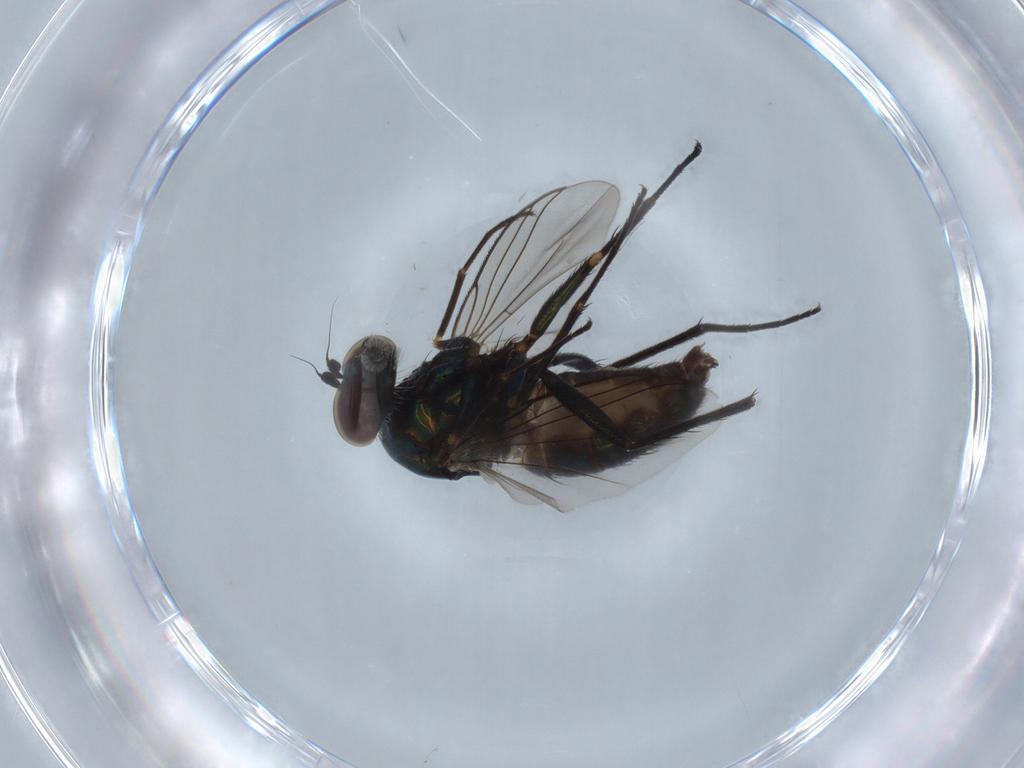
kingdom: Animalia
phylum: Arthropoda
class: Insecta
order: Diptera
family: Dolichopodidae
